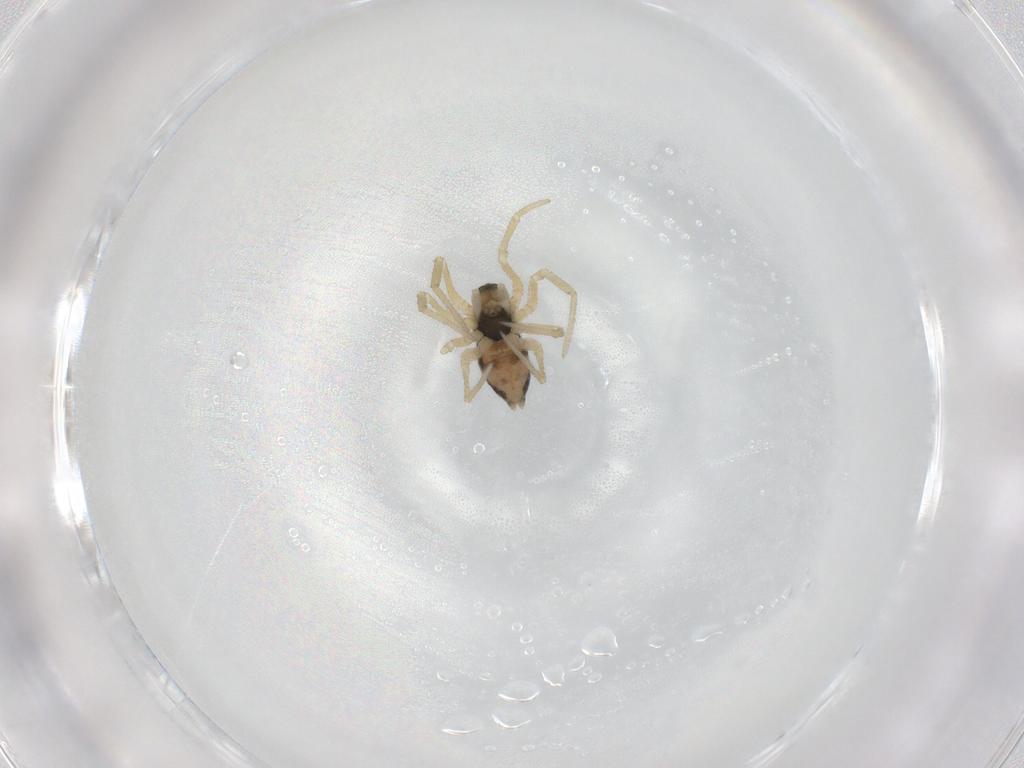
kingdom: Animalia
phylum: Arthropoda
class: Arachnida
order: Araneae
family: Linyphiidae
